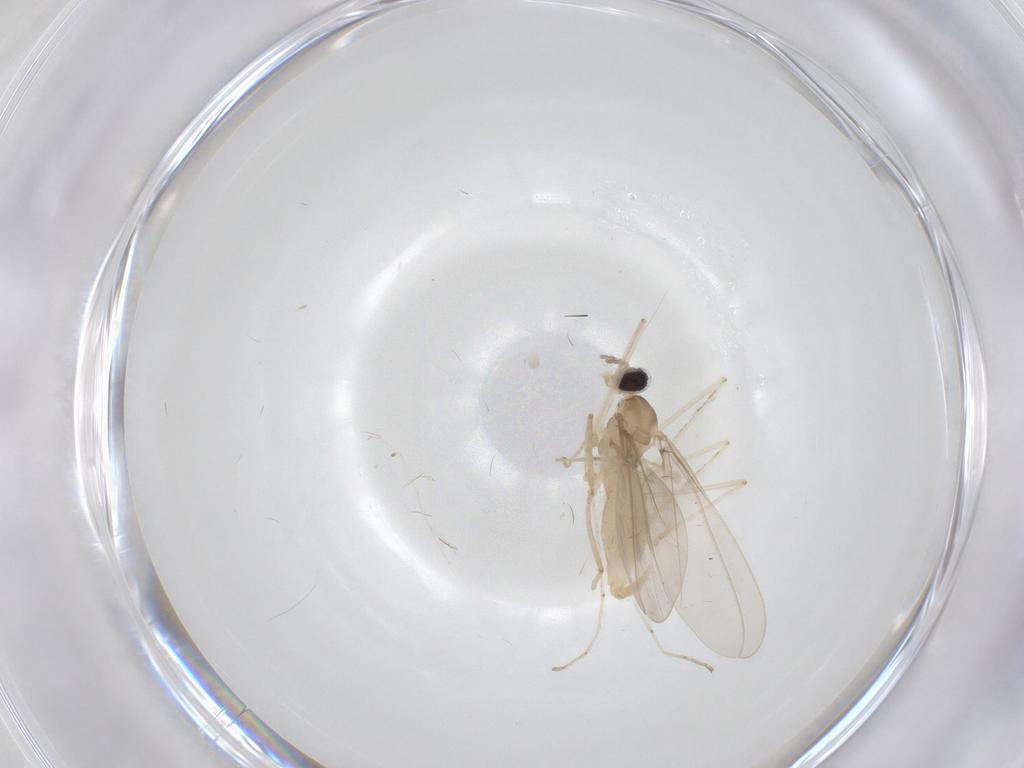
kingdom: Animalia
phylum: Arthropoda
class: Insecta
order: Diptera
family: Cecidomyiidae
